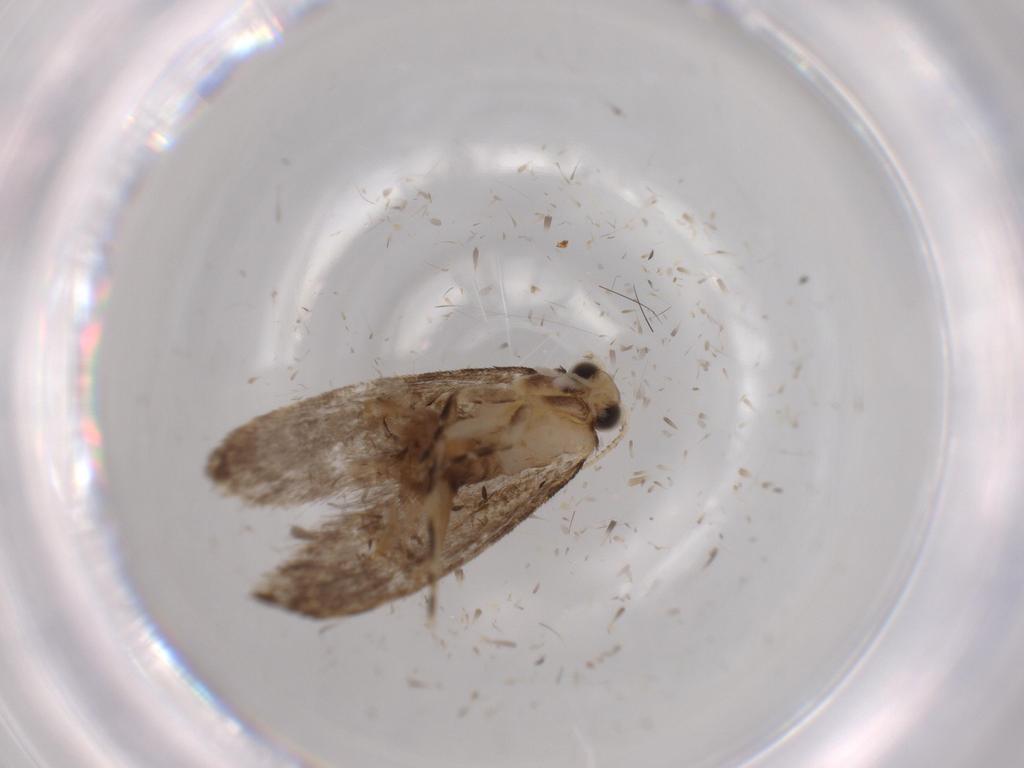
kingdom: Animalia
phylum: Arthropoda
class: Insecta
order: Lepidoptera
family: Tineidae
